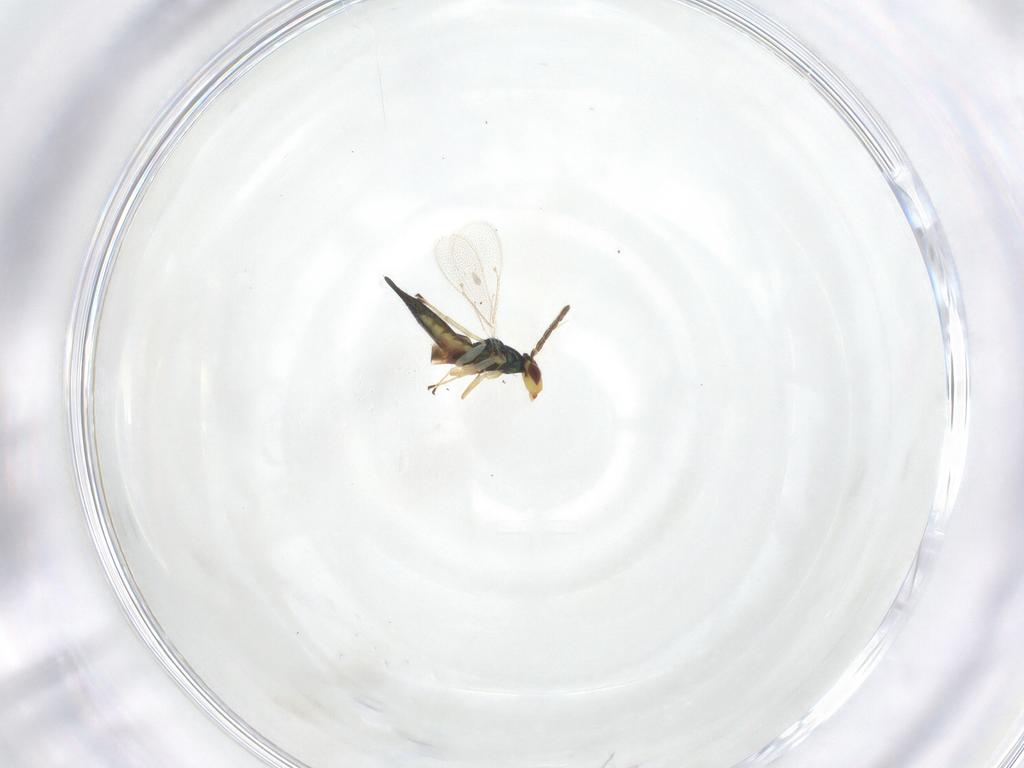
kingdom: Animalia
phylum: Arthropoda
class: Insecta
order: Hymenoptera
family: Eulophidae
